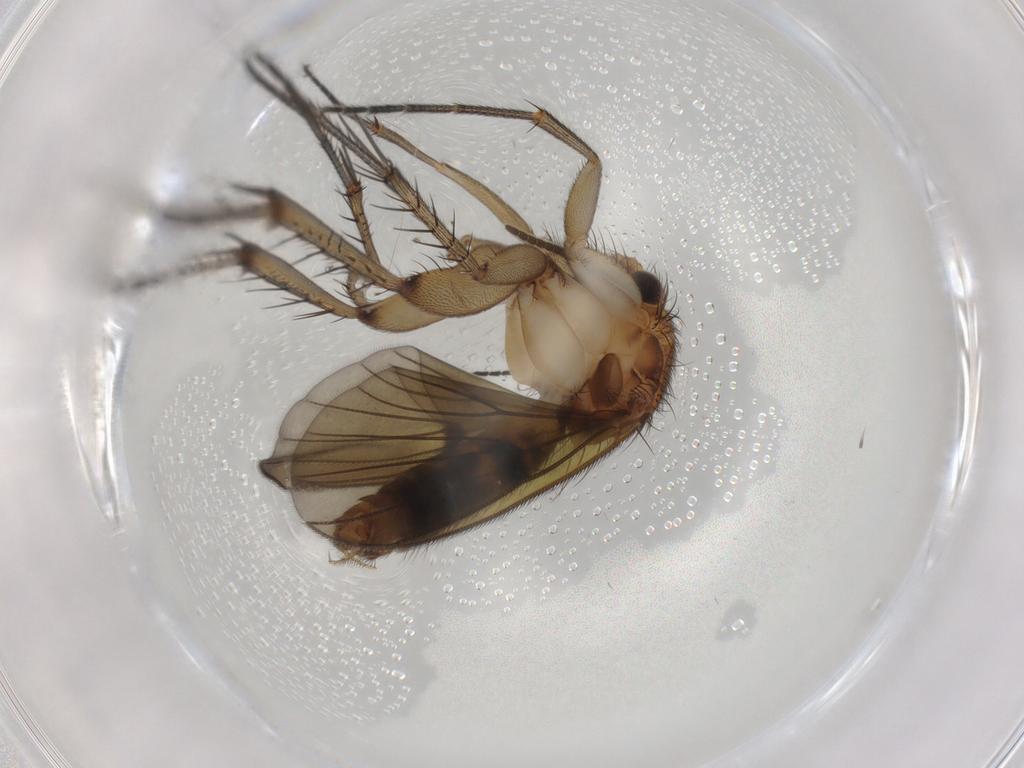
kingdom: Animalia
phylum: Arthropoda
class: Insecta
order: Diptera
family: Mycetophilidae
